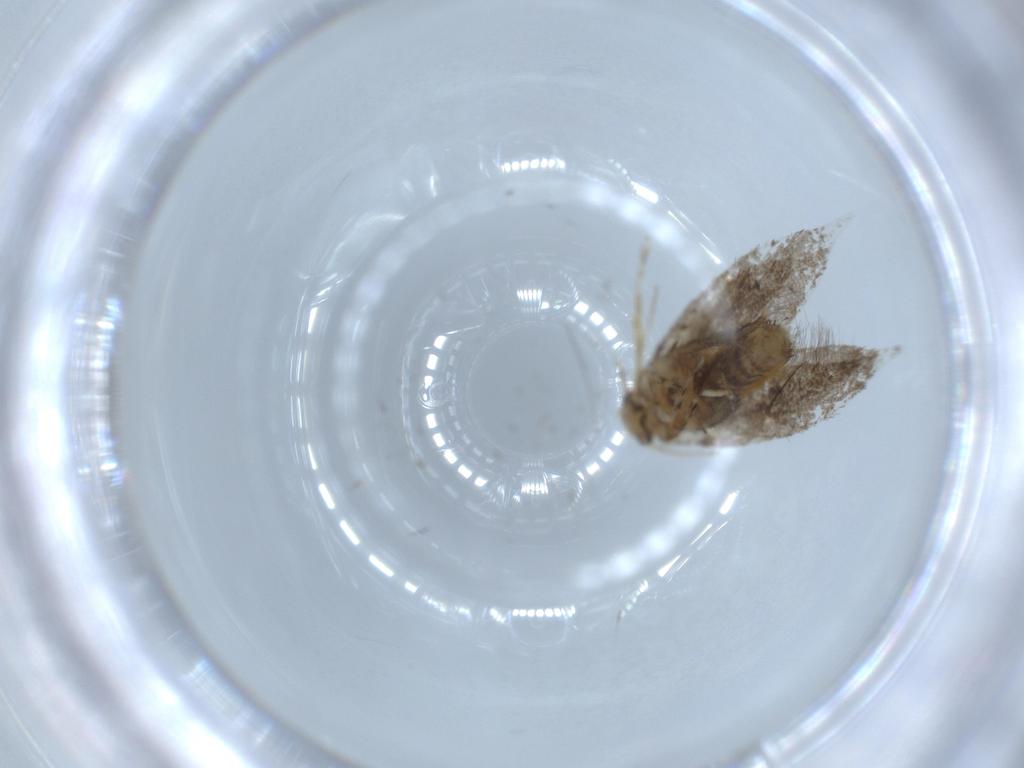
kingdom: Animalia
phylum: Arthropoda
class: Insecta
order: Lepidoptera
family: Incurvariidae
